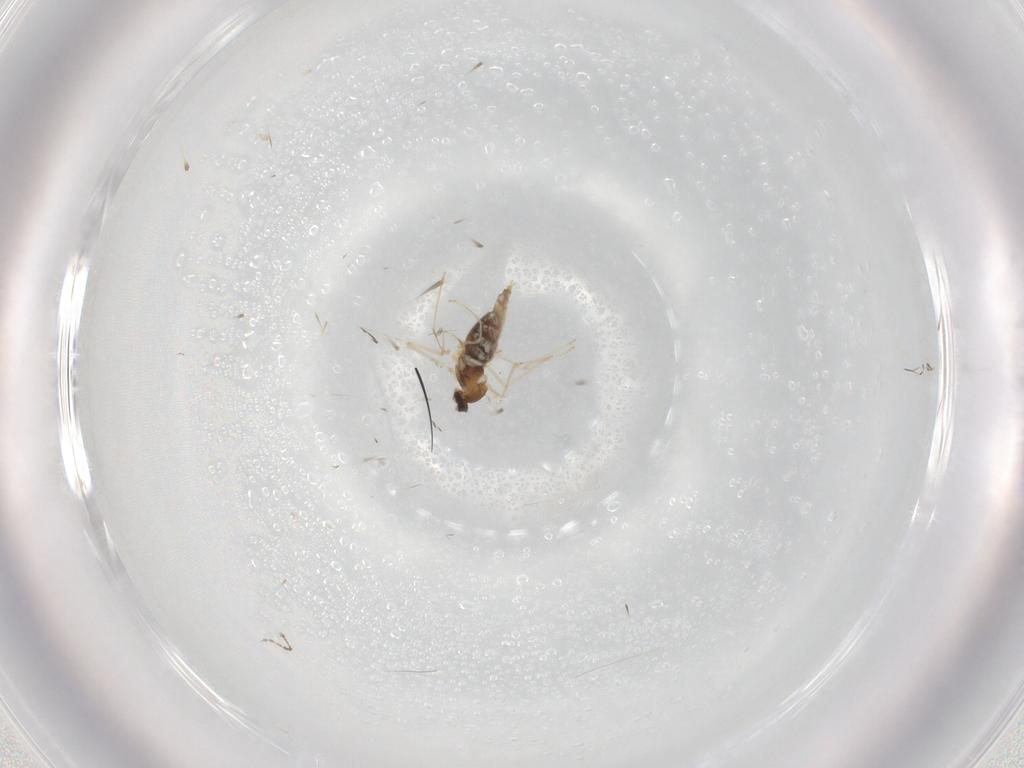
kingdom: Animalia
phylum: Arthropoda
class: Insecta
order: Diptera
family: Cecidomyiidae
